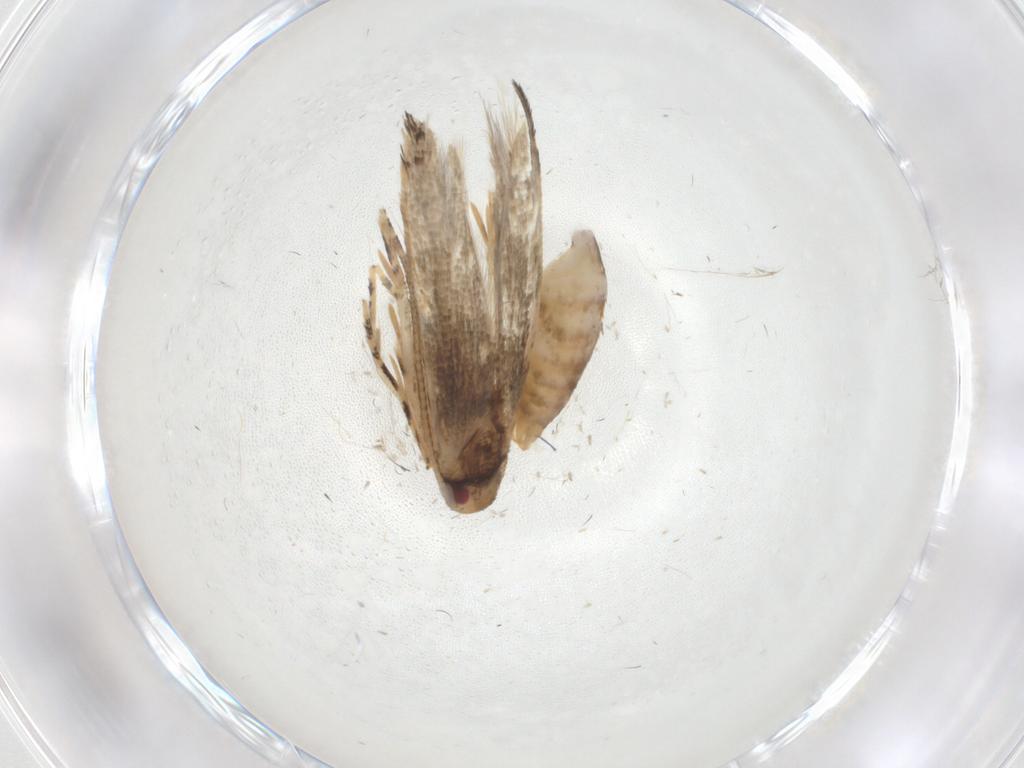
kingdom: Animalia
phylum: Arthropoda
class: Insecta
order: Lepidoptera
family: Momphidae
